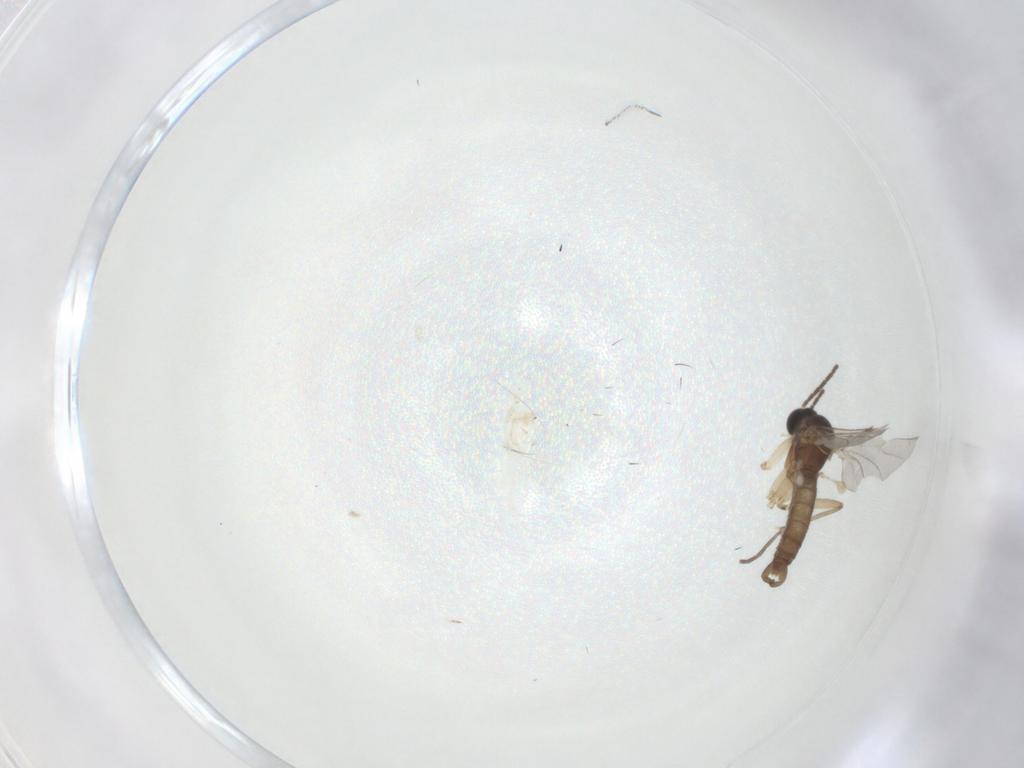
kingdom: Animalia
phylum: Arthropoda
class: Insecta
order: Diptera
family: Sciaridae
